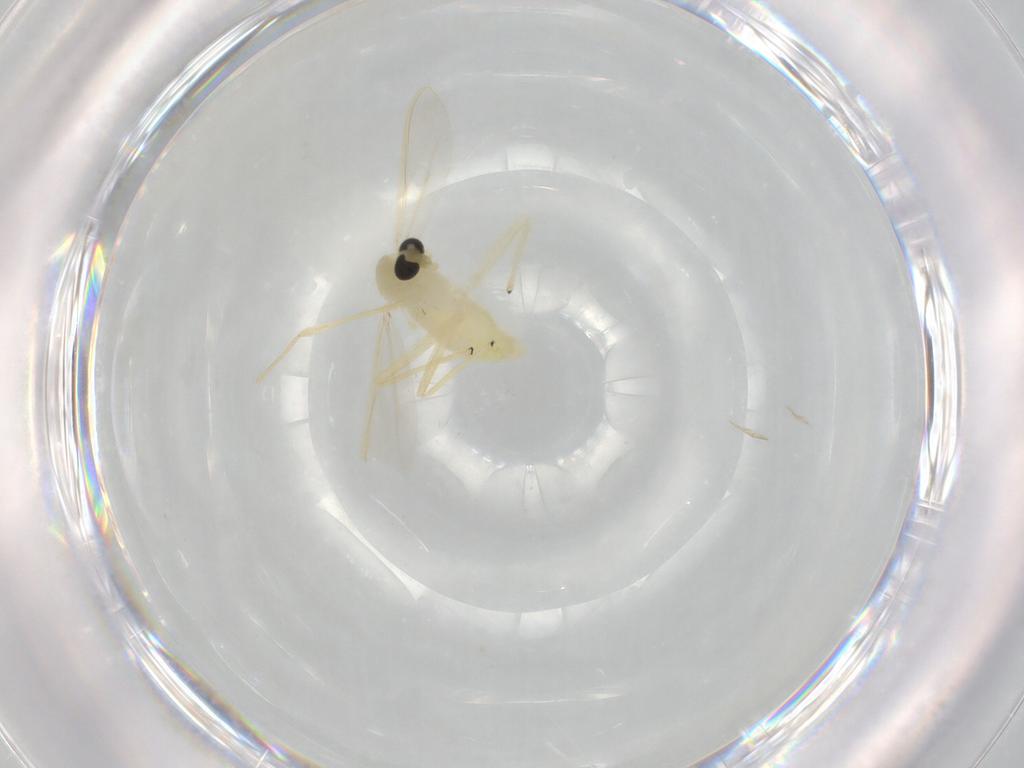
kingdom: Animalia
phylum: Arthropoda
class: Insecta
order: Diptera
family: Chironomidae
